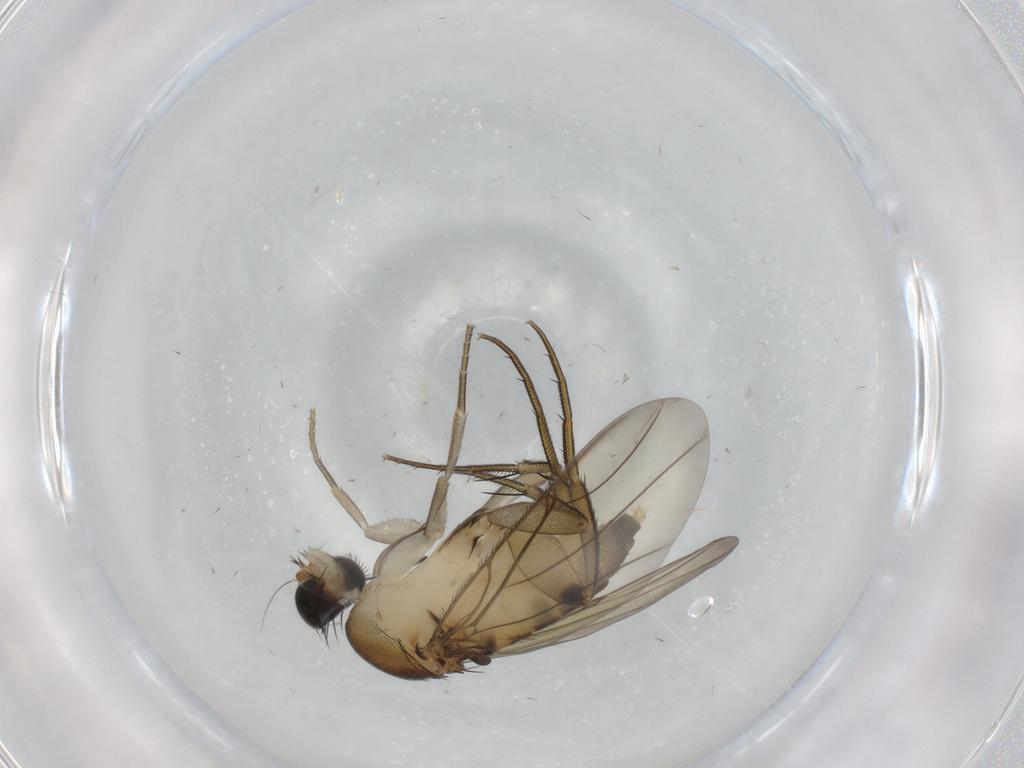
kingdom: Animalia
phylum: Arthropoda
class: Insecta
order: Diptera
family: Phoridae
